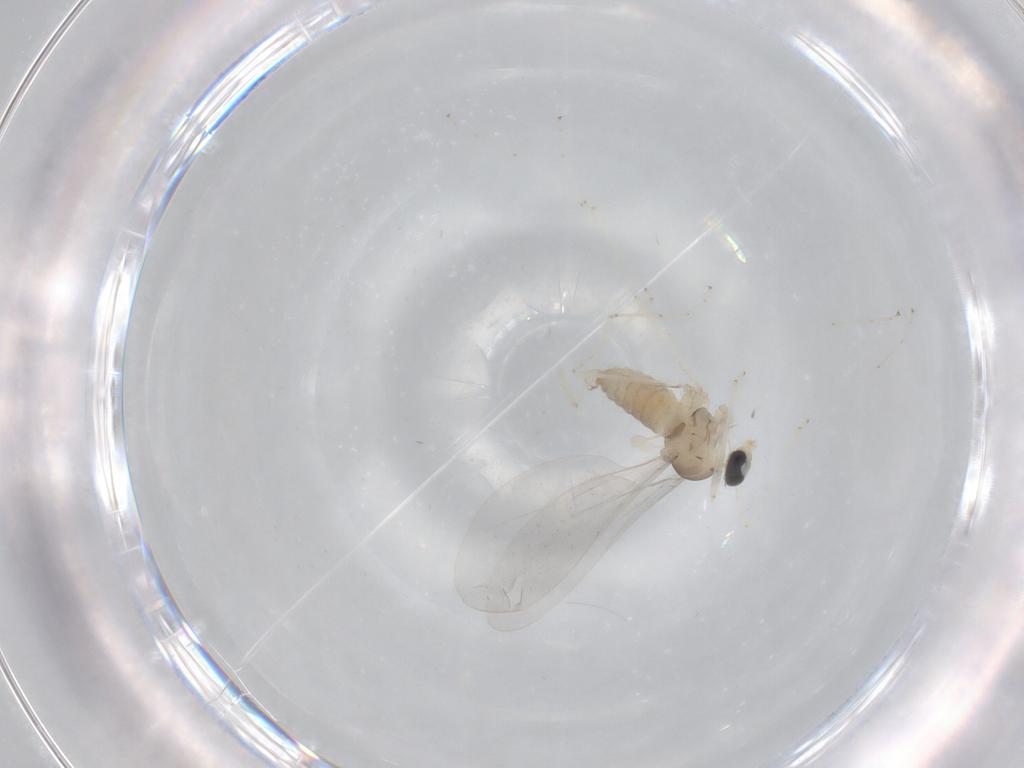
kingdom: Animalia
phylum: Arthropoda
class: Insecta
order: Diptera
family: Cecidomyiidae
